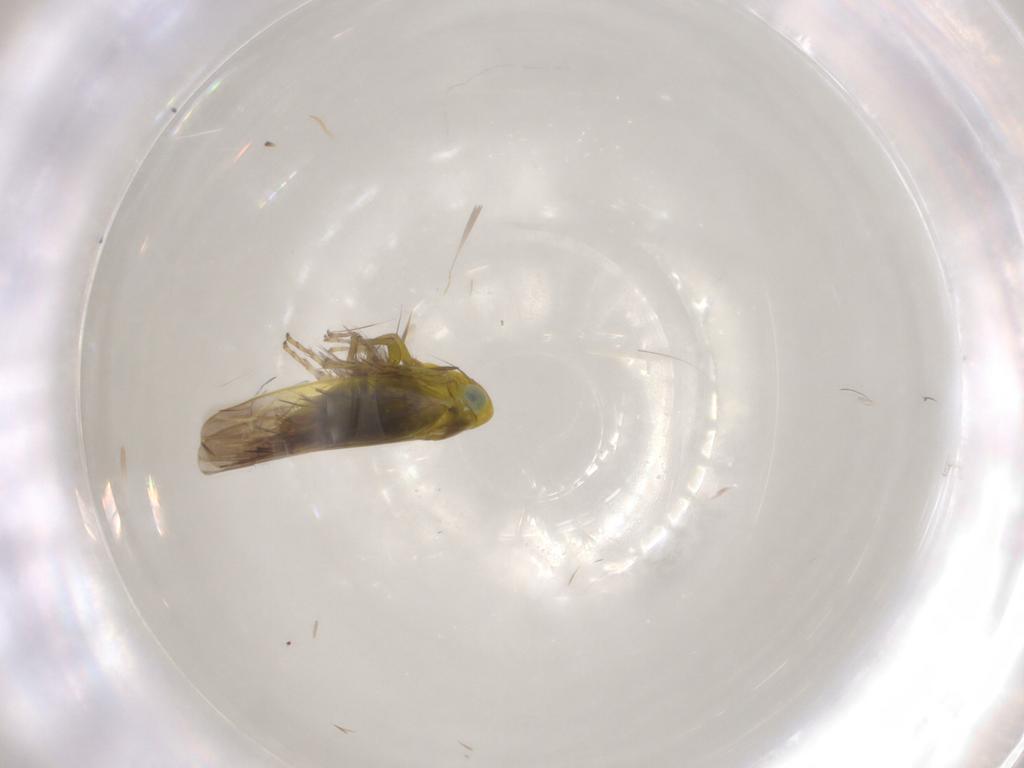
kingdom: Animalia
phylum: Arthropoda
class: Insecta
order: Hemiptera
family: Cicadellidae
